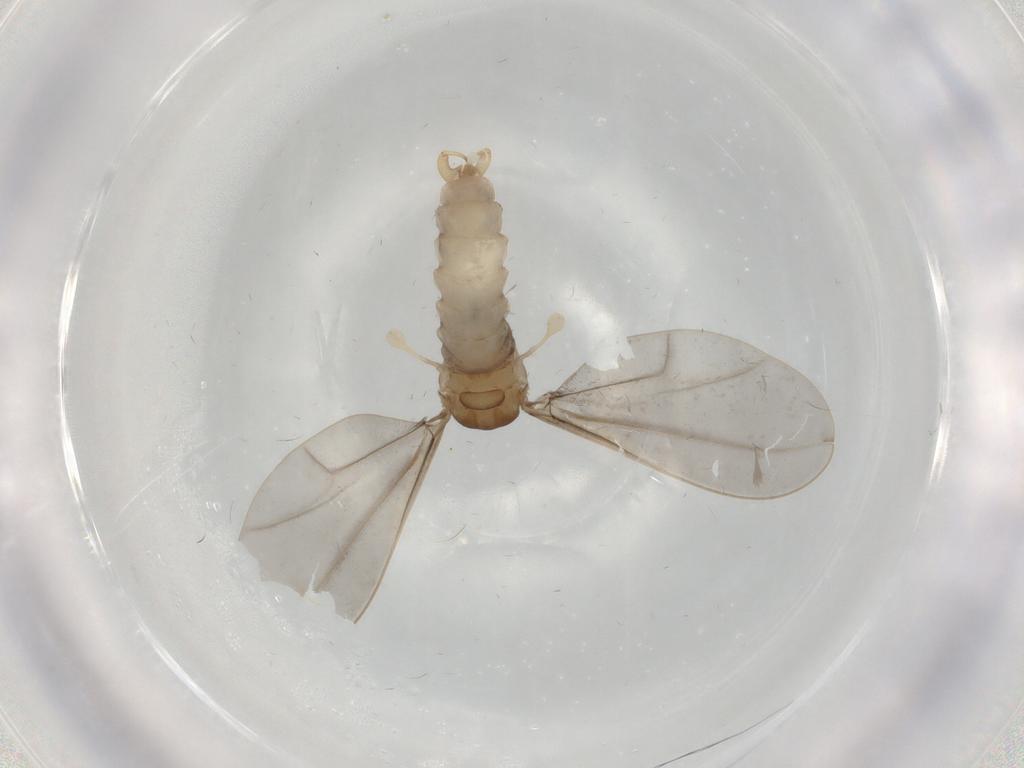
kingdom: Animalia
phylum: Arthropoda
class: Insecta
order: Diptera
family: Cecidomyiidae
